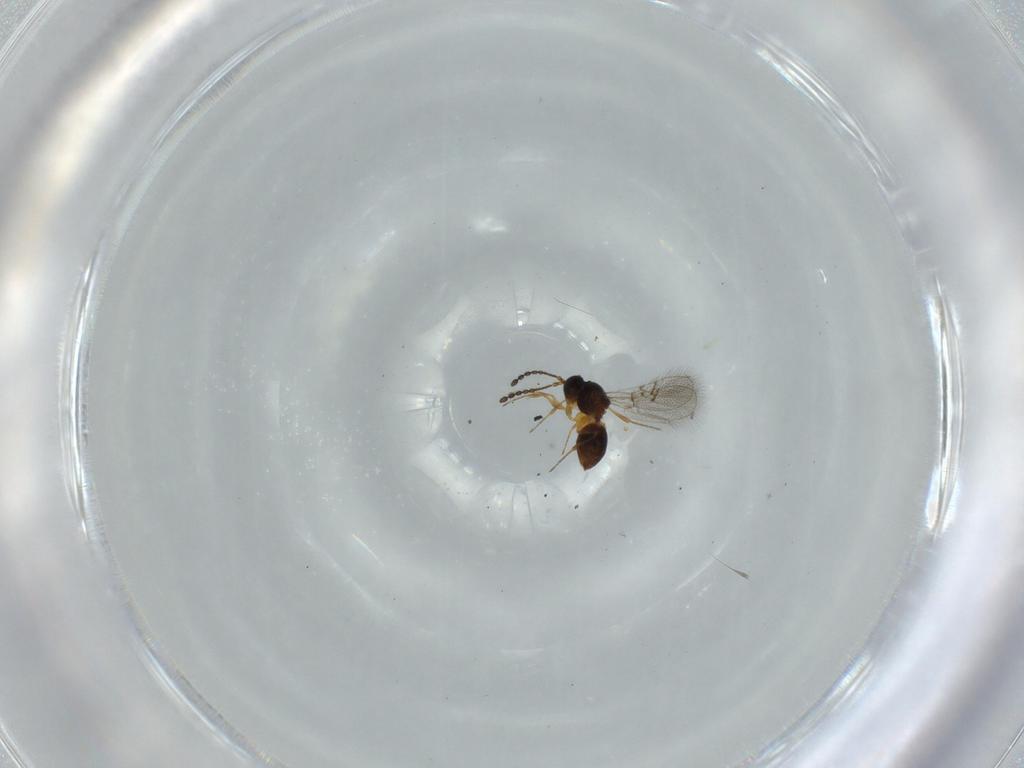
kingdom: Animalia
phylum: Arthropoda
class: Insecta
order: Hymenoptera
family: Figitidae
